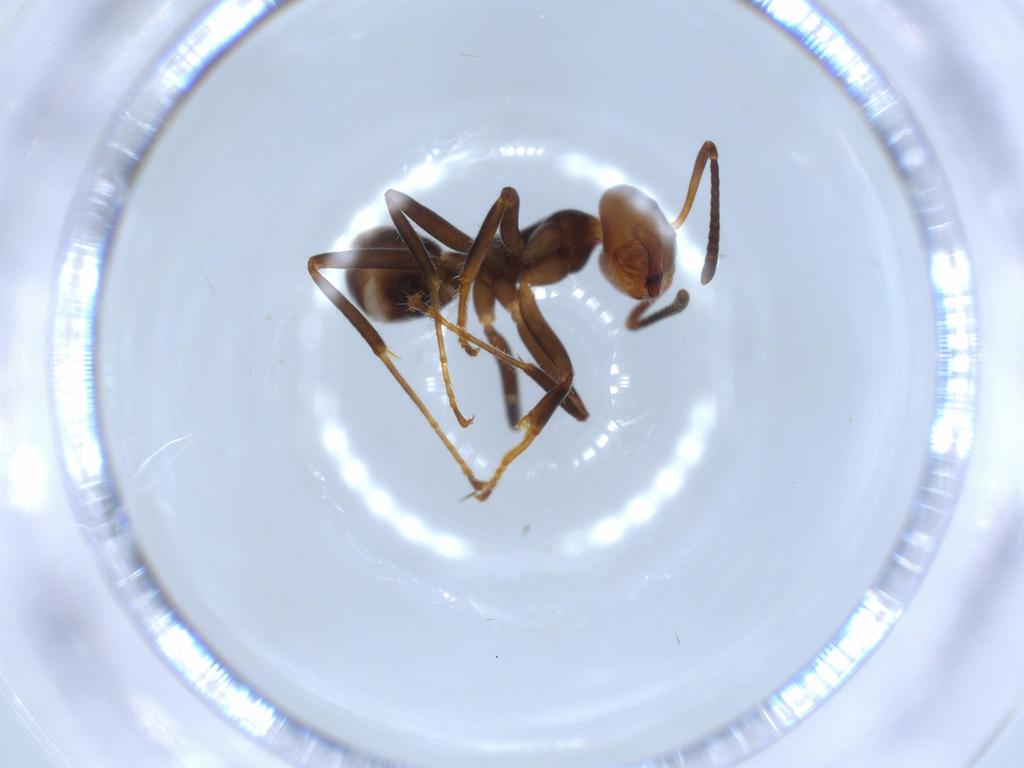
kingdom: Animalia
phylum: Arthropoda
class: Insecta
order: Hymenoptera
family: Formicidae
